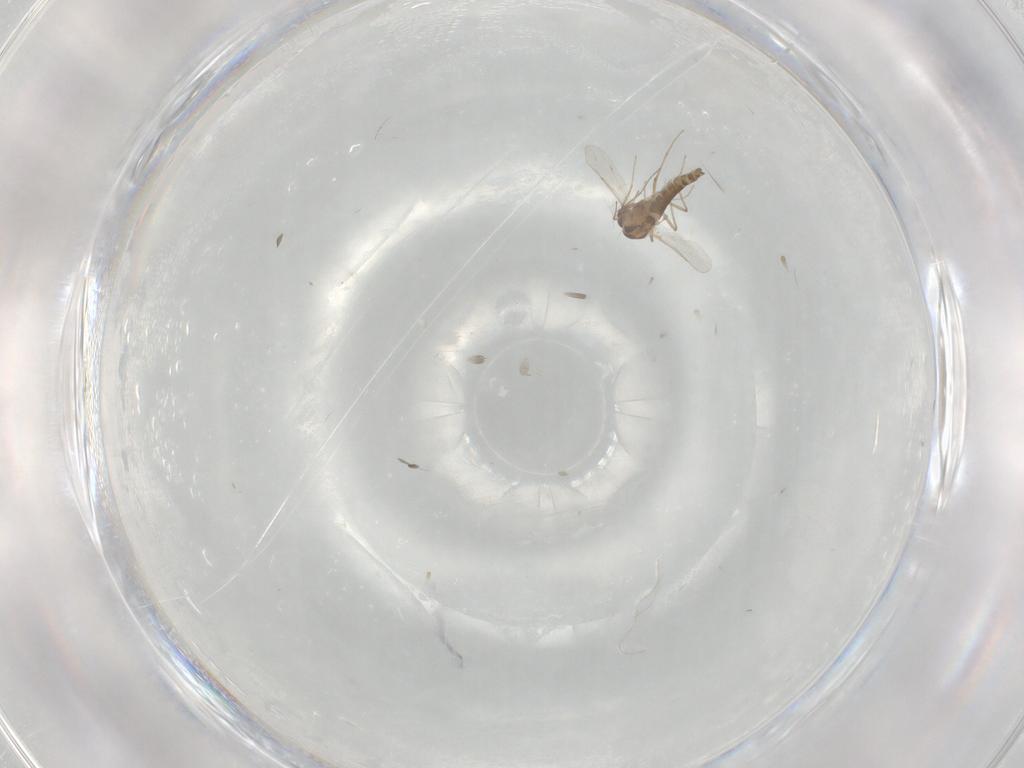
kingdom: Animalia
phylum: Arthropoda
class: Insecta
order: Diptera
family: Ceratopogonidae
